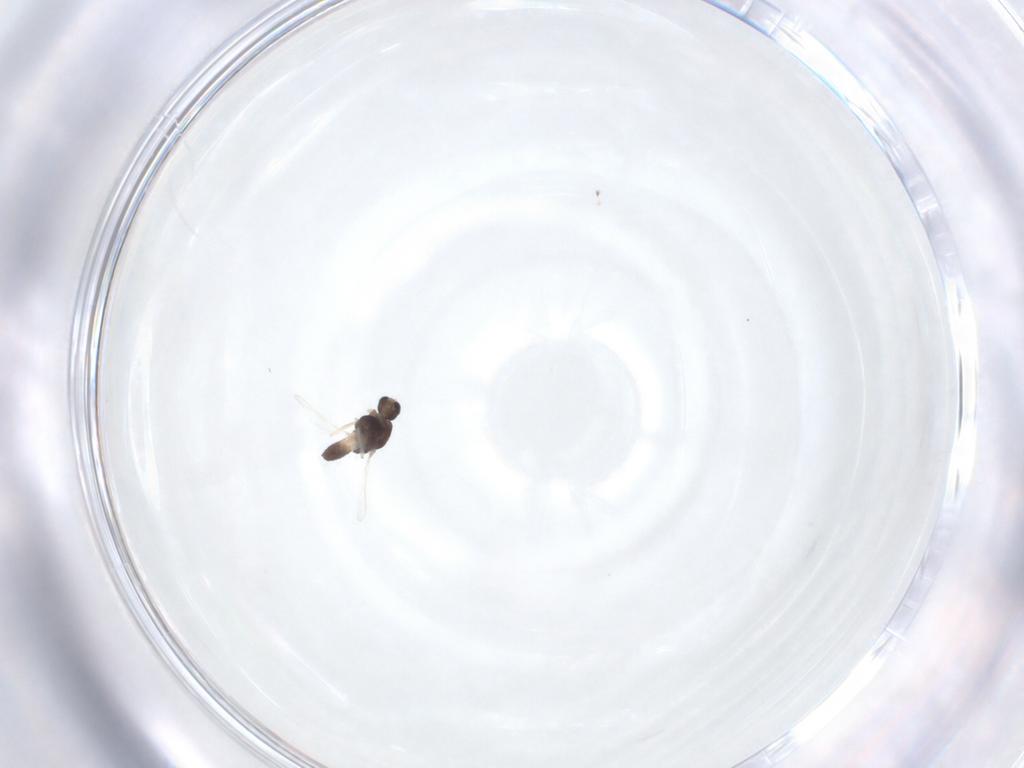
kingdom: Animalia
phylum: Arthropoda
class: Insecta
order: Diptera
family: Chironomidae
